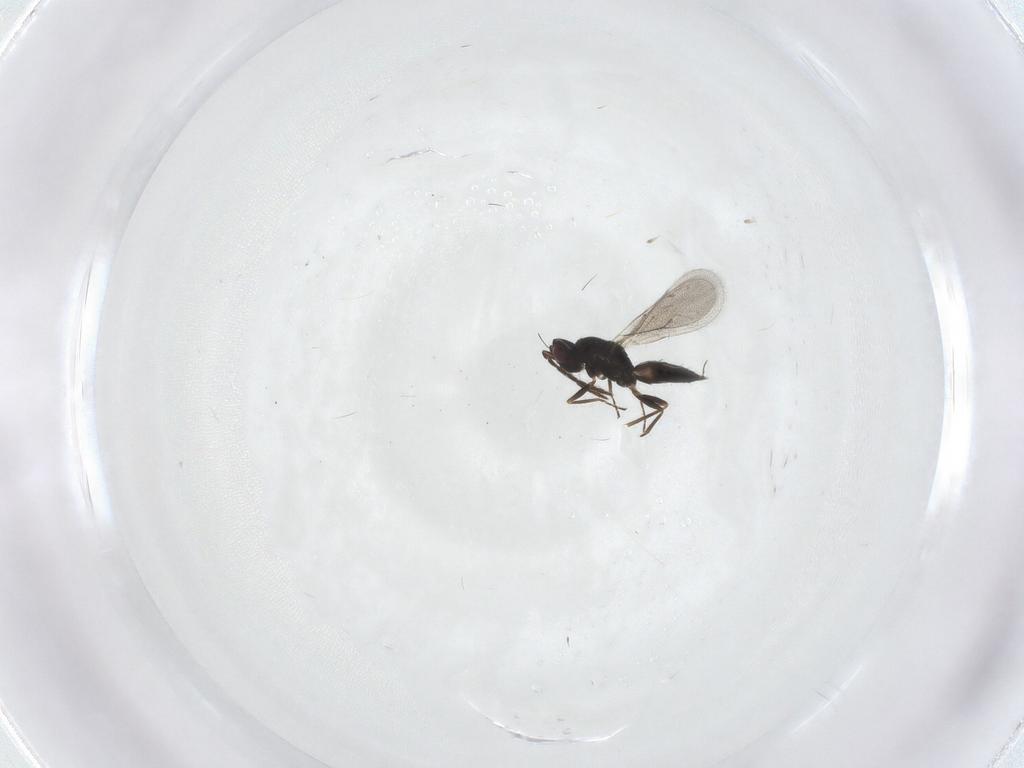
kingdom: Animalia
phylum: Arthropoda
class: Insecta
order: Hymenoptera
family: Eulophidae
